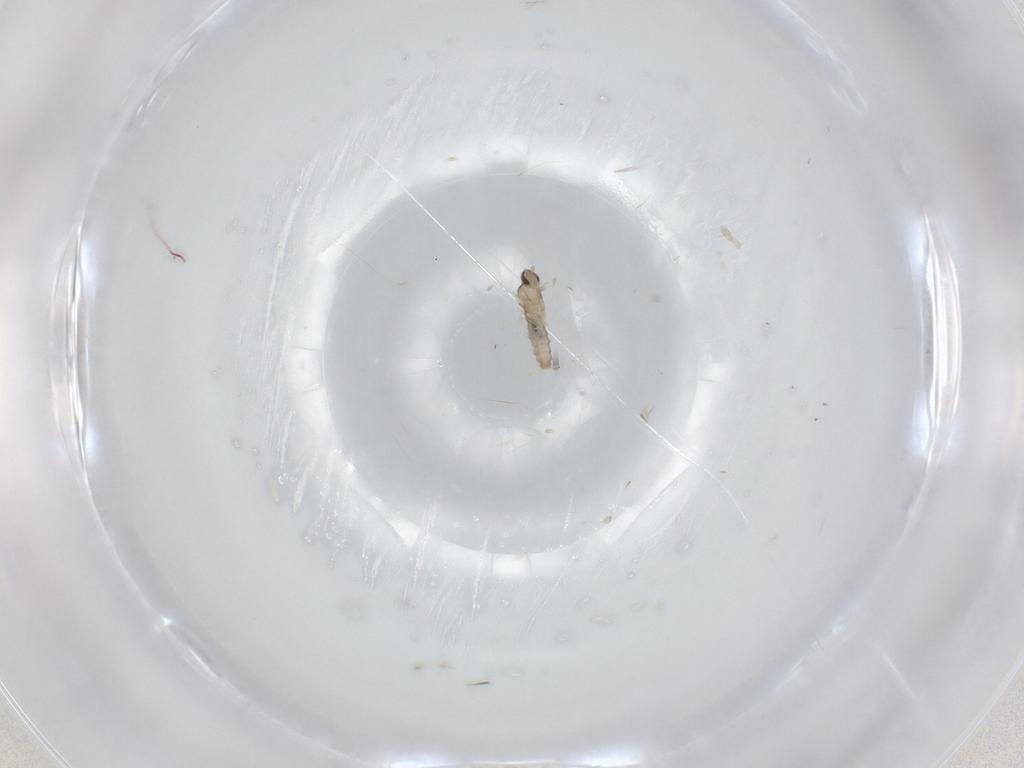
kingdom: Animalia
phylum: Arthropoda
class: Insecta
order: Diptera
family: Cecidomyiidae
